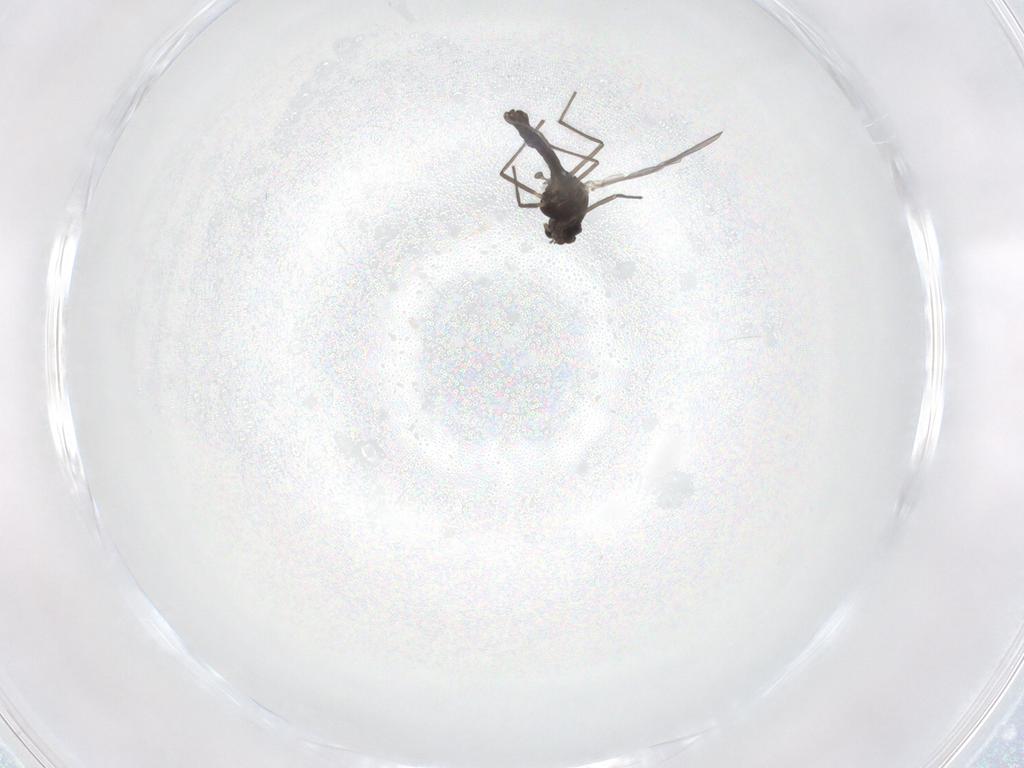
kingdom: Animalia
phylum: Arthropoda
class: Insecta
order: Diptera
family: Chironomidae
